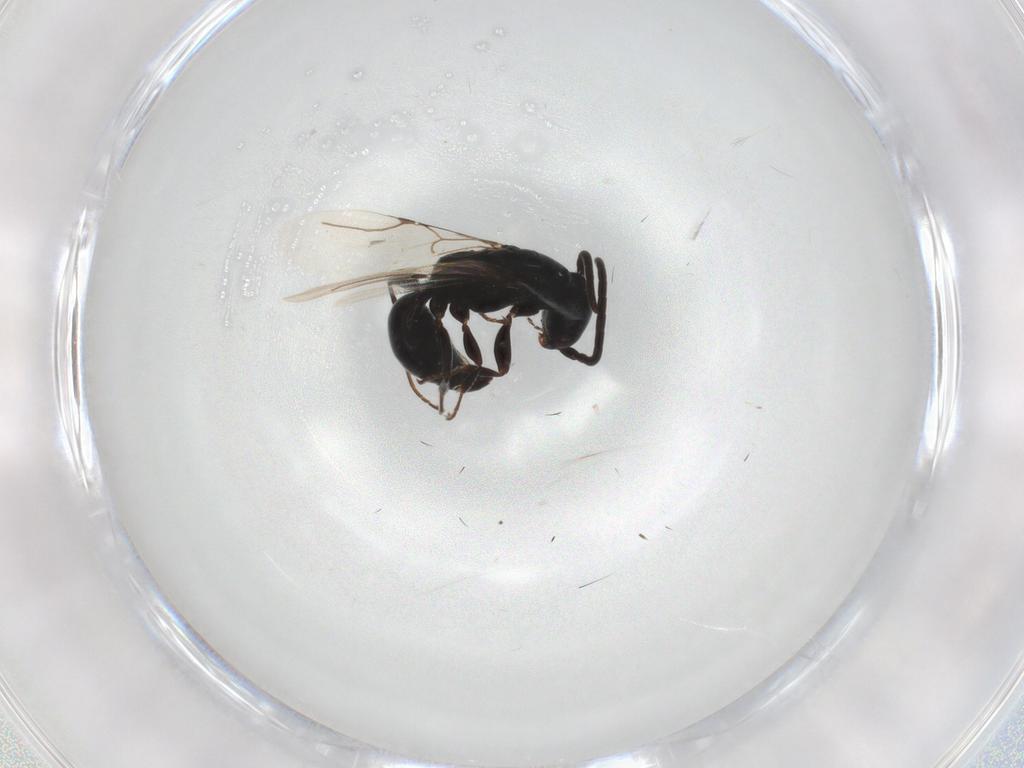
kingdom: Animalia
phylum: Arthropoda
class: Insecta
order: Hymenoptera
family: Bethylidae
